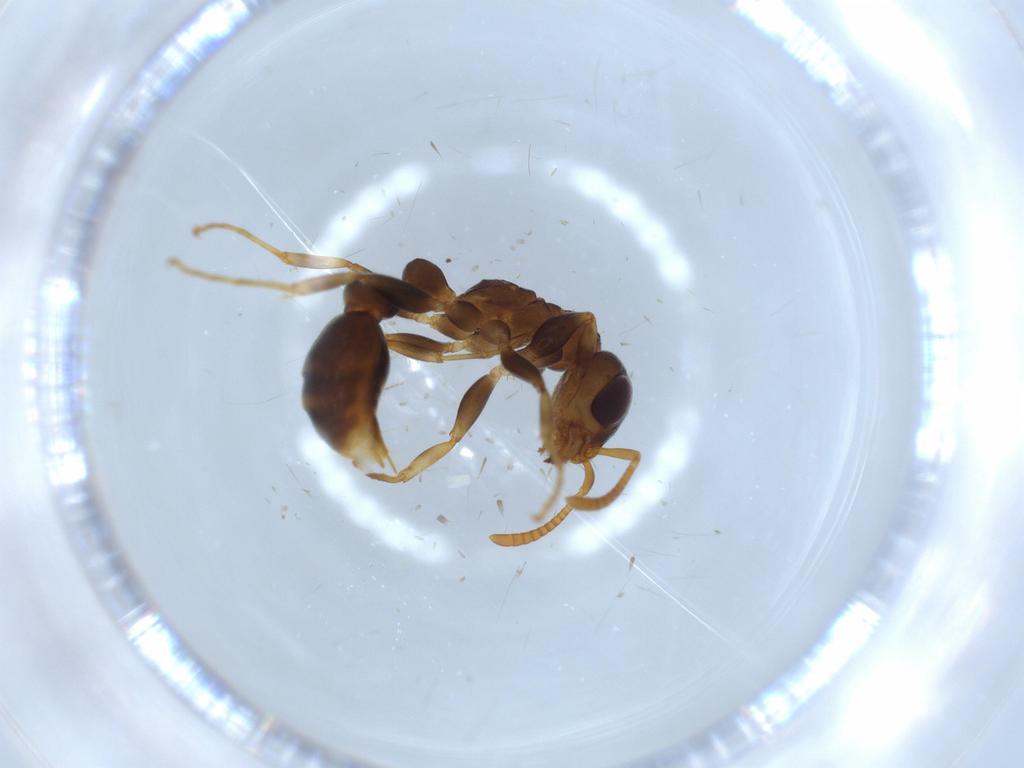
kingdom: Animalia
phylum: Arthropoda
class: Insecta
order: Hymenoptera
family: Formicidae
